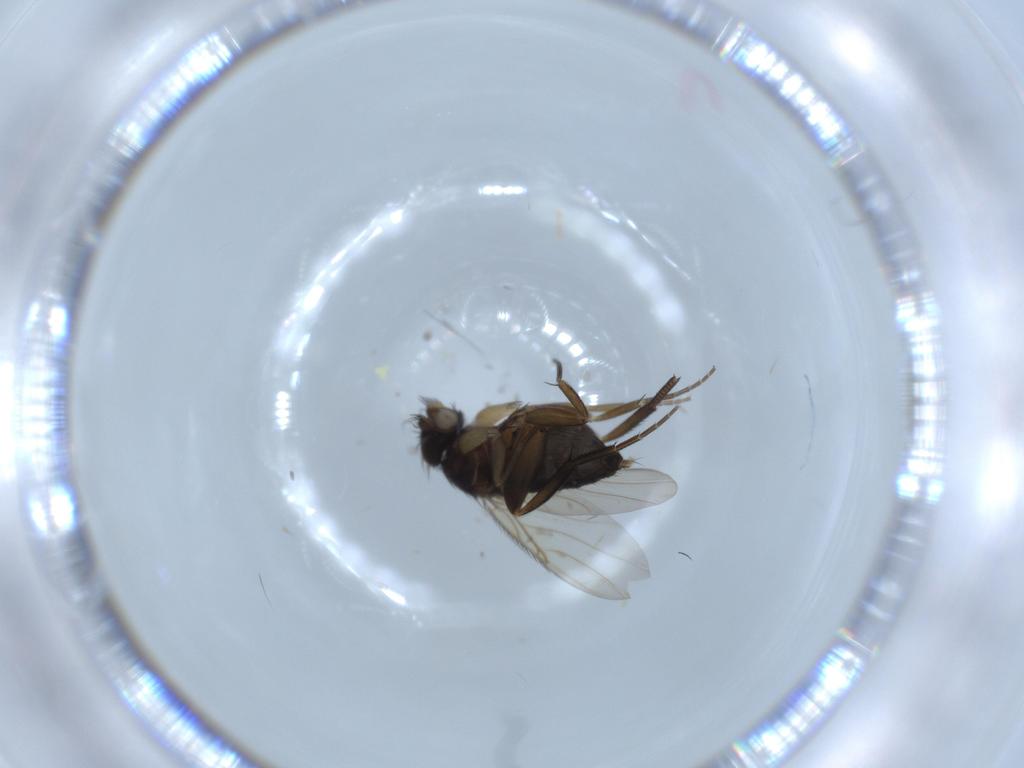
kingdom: Animalia
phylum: Arthropoda
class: Insecta
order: Diptera
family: Phoridae
